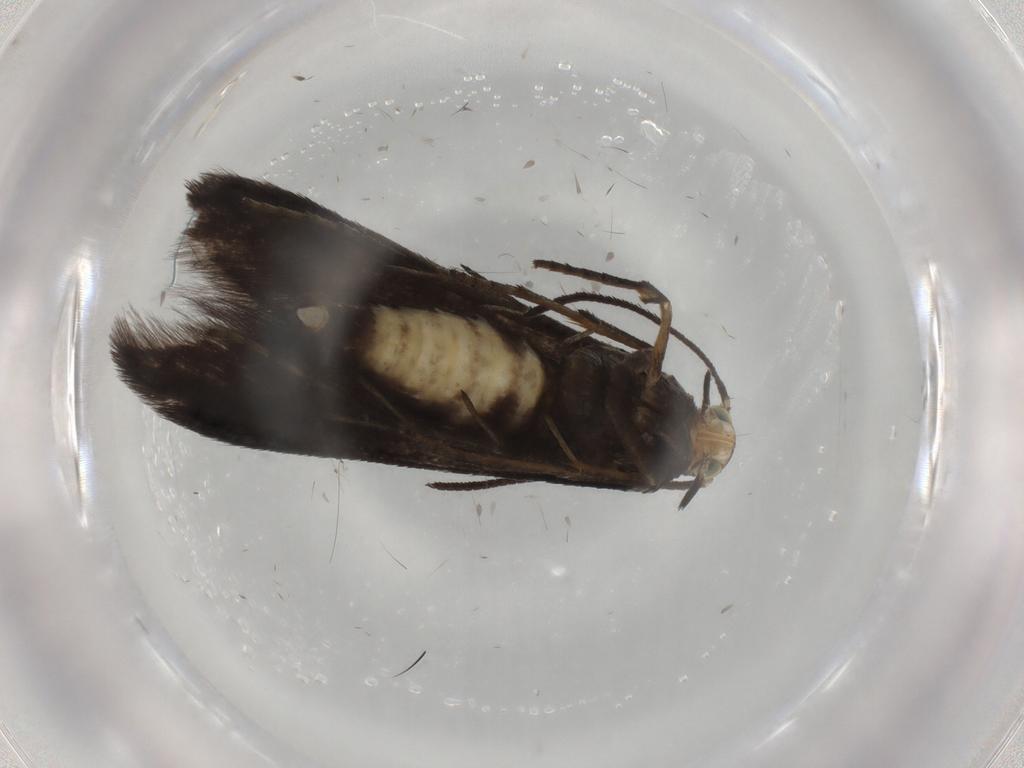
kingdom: Animalia
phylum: Arthropoda
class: Insecta
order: Lepidoptera
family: Schreckensteiniidae
